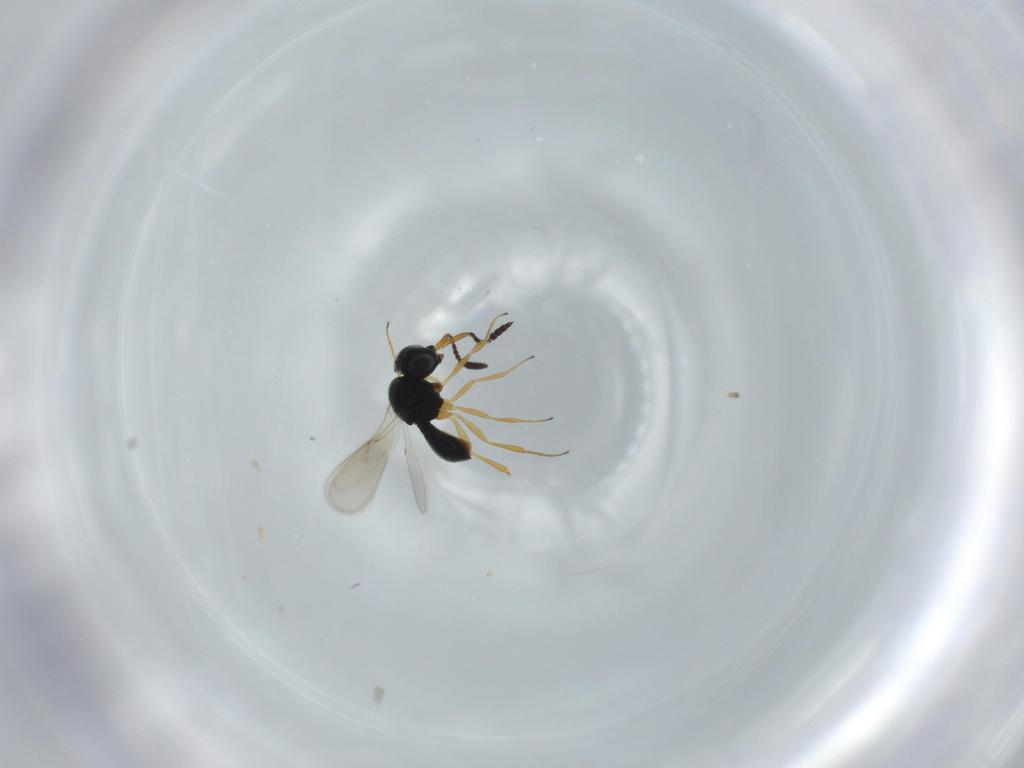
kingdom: Animalia
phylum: Arthropoda
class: Insecta
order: Hymenoptera
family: Scelionidae
